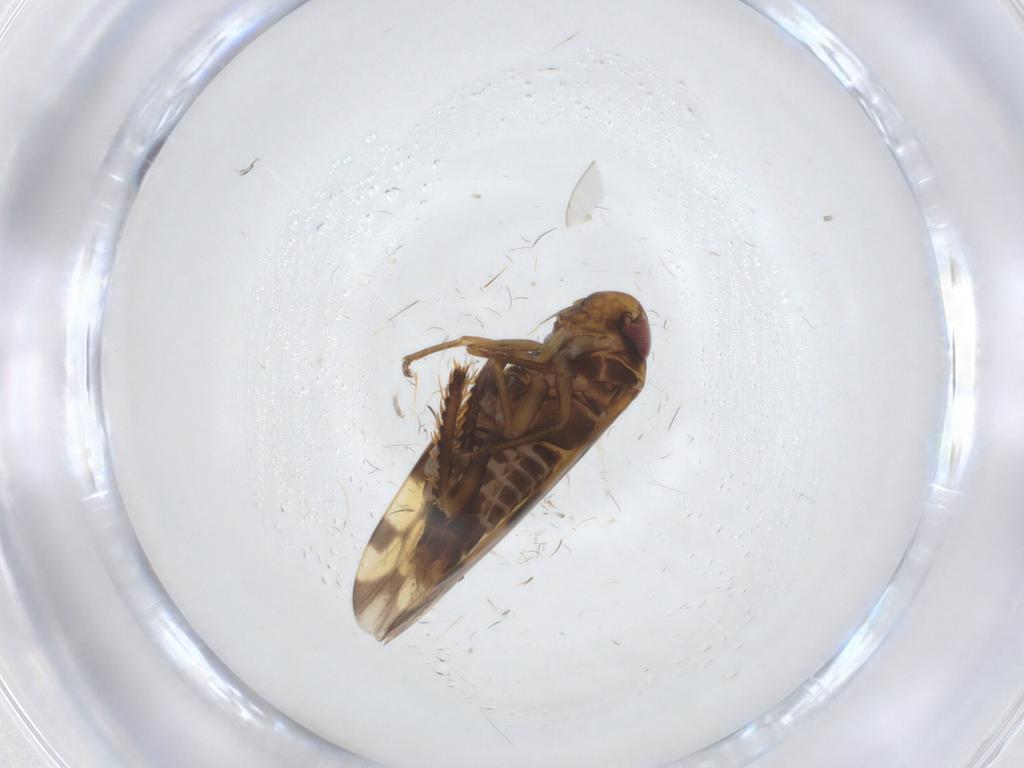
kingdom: Animalia
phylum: Arthropoda
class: Insecta
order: Hemiptera
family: Cicadellidae
